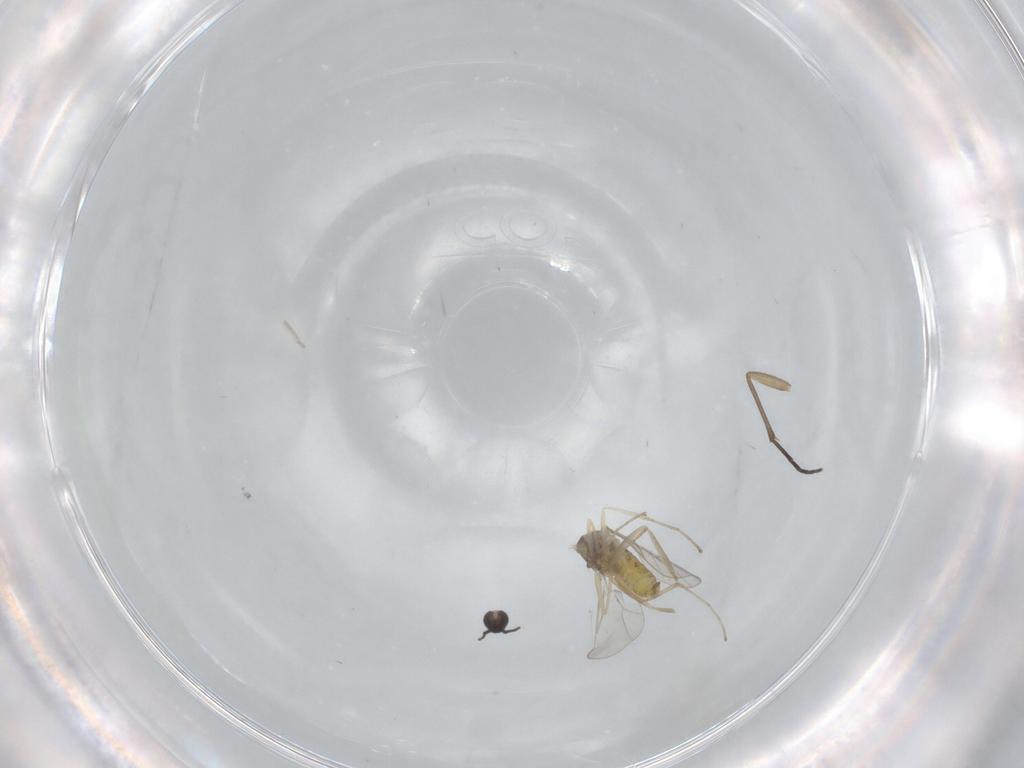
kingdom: Animalia
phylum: Arthropoda
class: Insecta
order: Diptera
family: Cecidomyiidae
